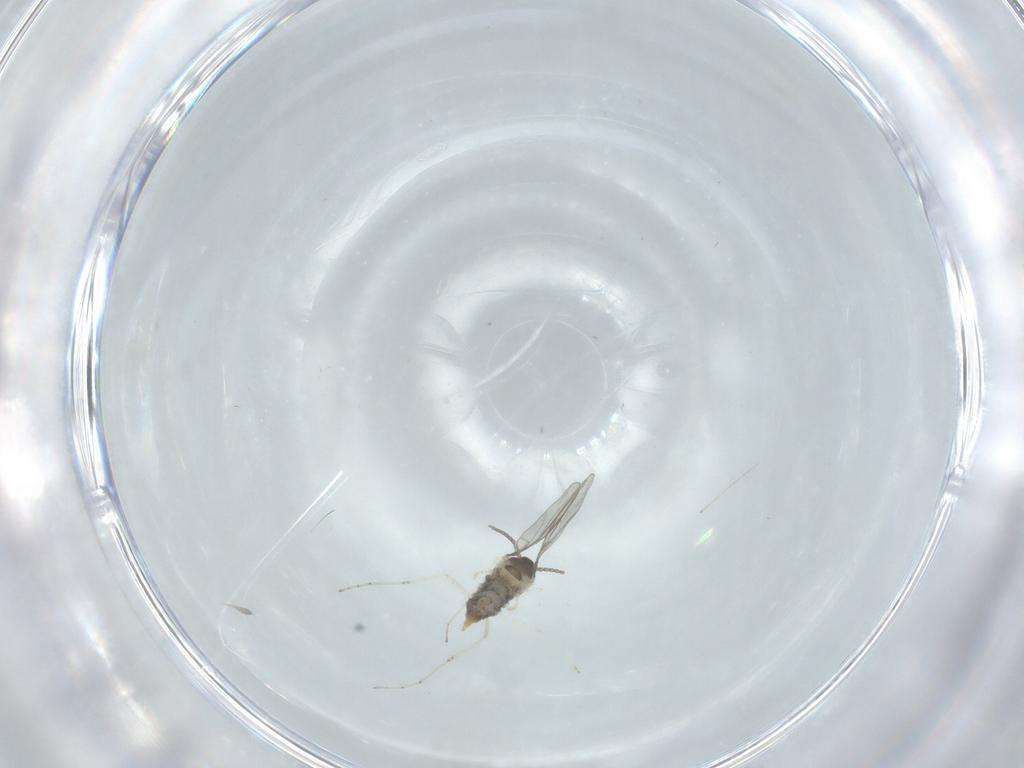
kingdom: Animalia
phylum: Arthropoda
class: Insecta
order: Diptera
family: Cecidomyiidae
